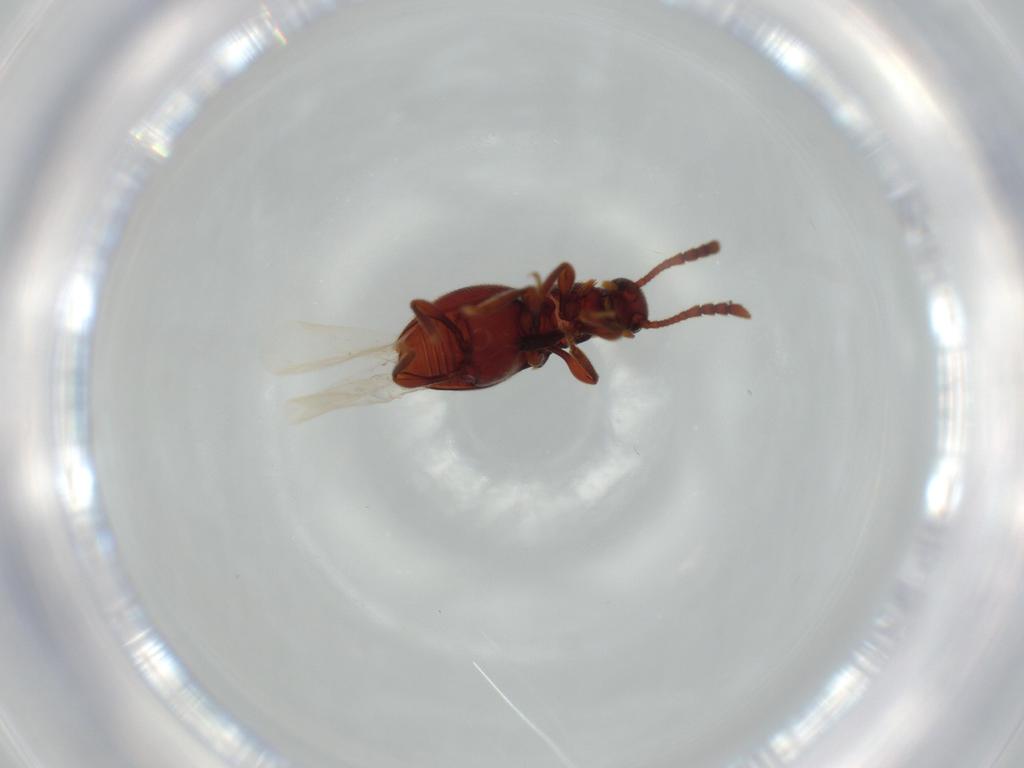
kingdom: Animalia
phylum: Arthropoda
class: Insecta
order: Coleoptera
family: Staphylinidae
